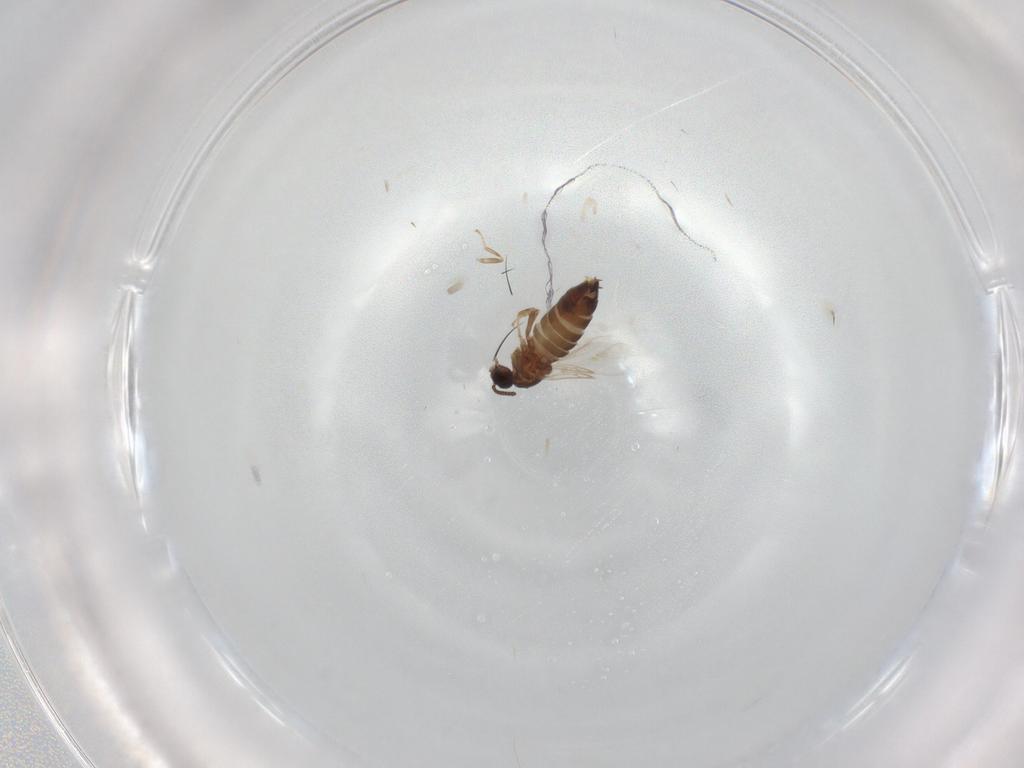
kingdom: Animalia
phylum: Arthropoda
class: Insecta
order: Diptera
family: Scatopsidae
